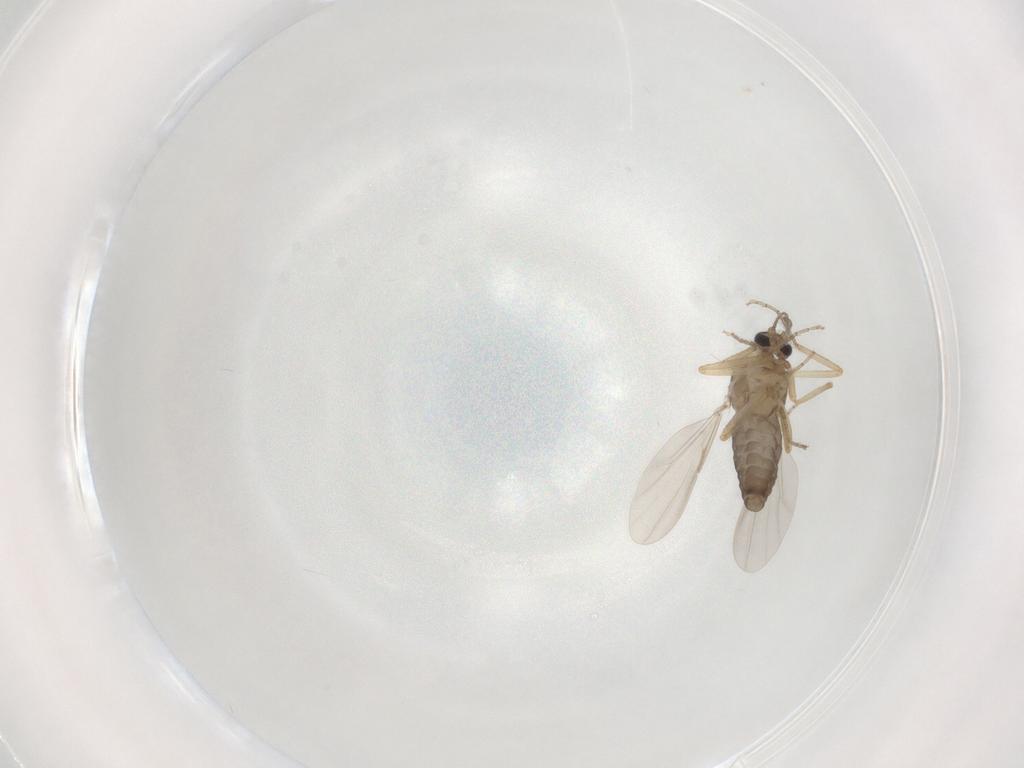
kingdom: Animalia
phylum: Arthropoda
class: Insecta
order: Diptera
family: Ceratopogonidae
